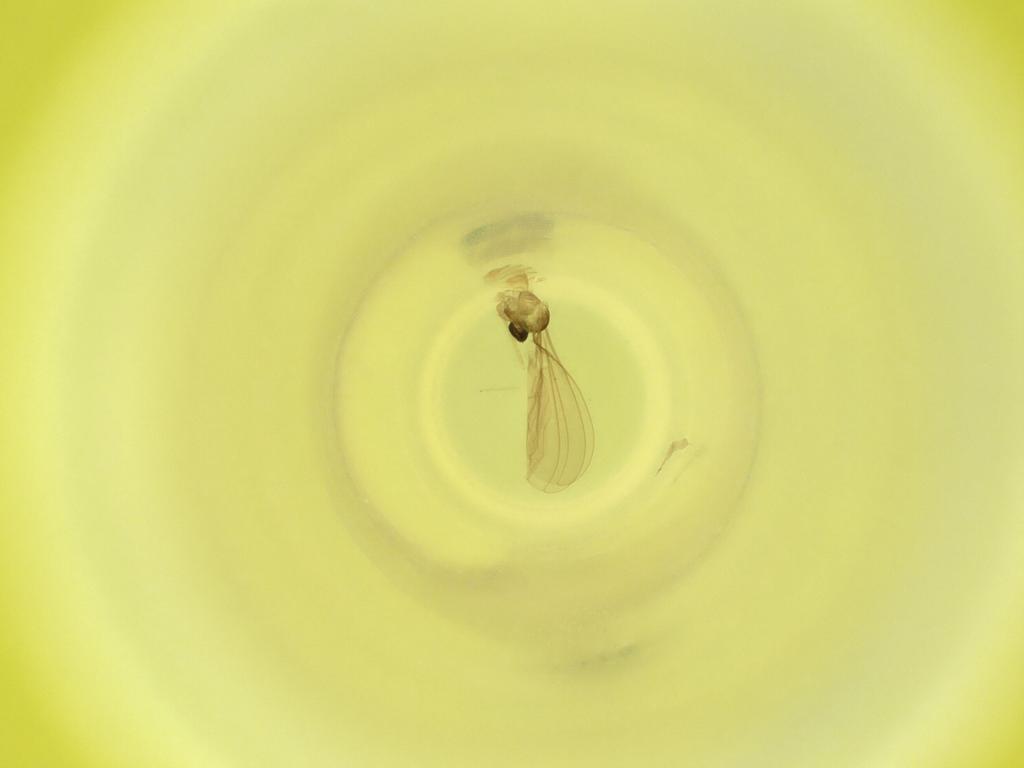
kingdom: Animalia
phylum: Arthropoda
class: Insecta
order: Diptera
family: Cecidomyiidae
